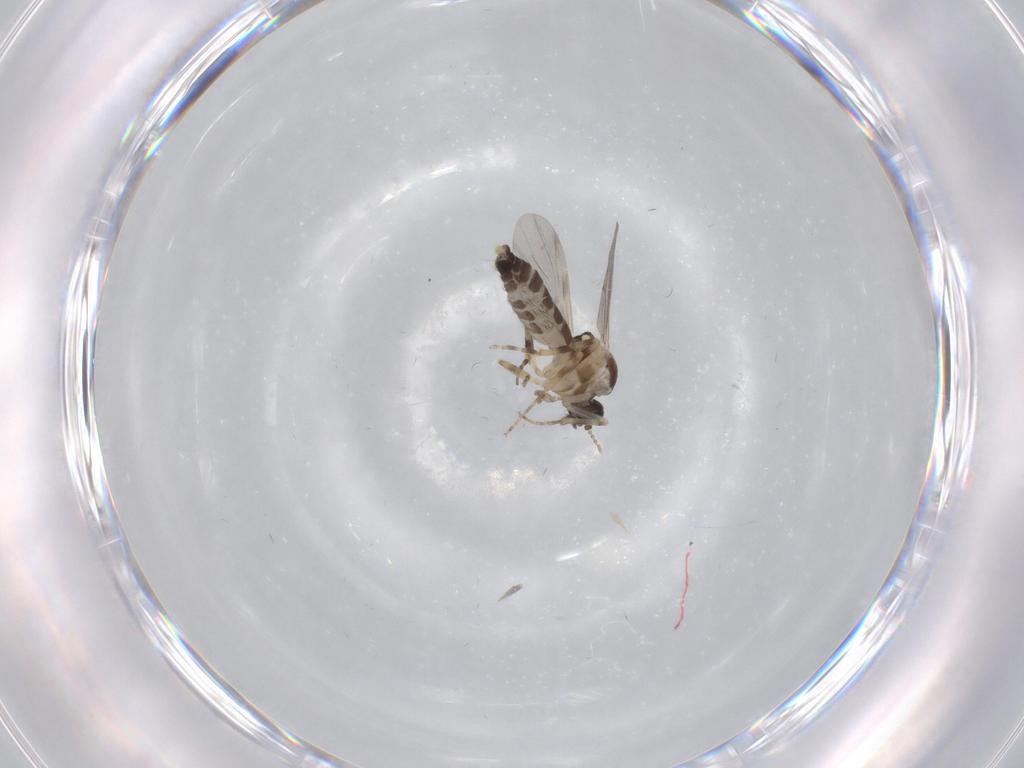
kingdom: Animalia
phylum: Arthropoda
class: Insecta
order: Diptera
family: Ceratopogonidae
